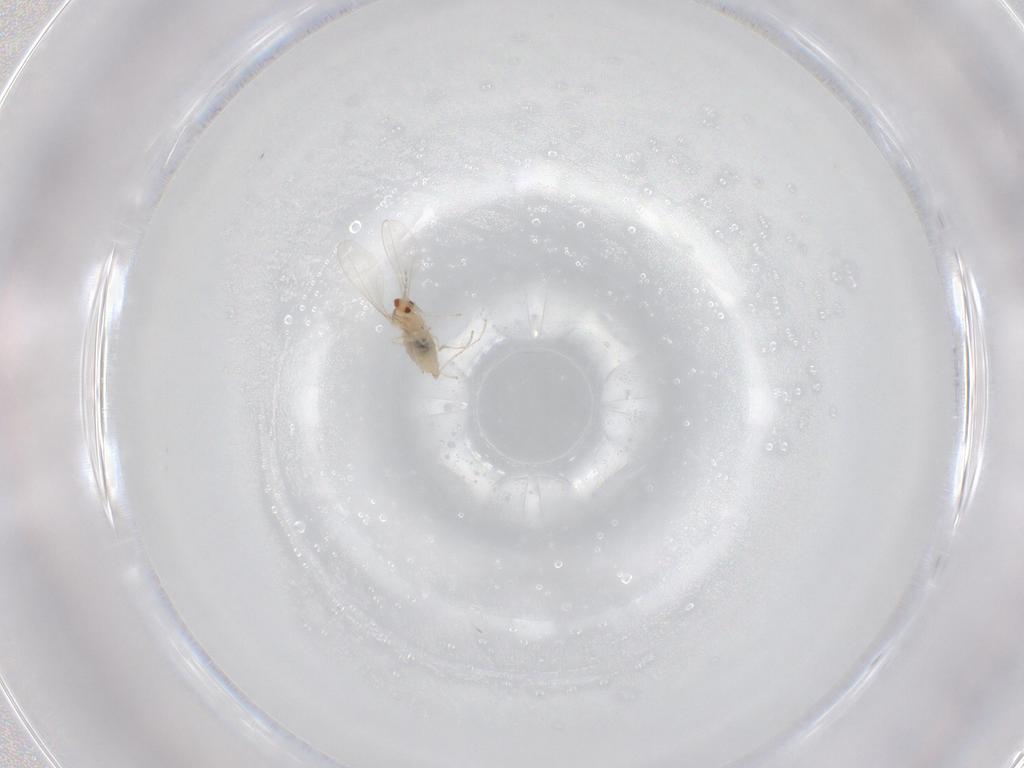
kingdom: Animalia
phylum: Arthropoda
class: Insecta
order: Diptera
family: Cecidomyiidae
